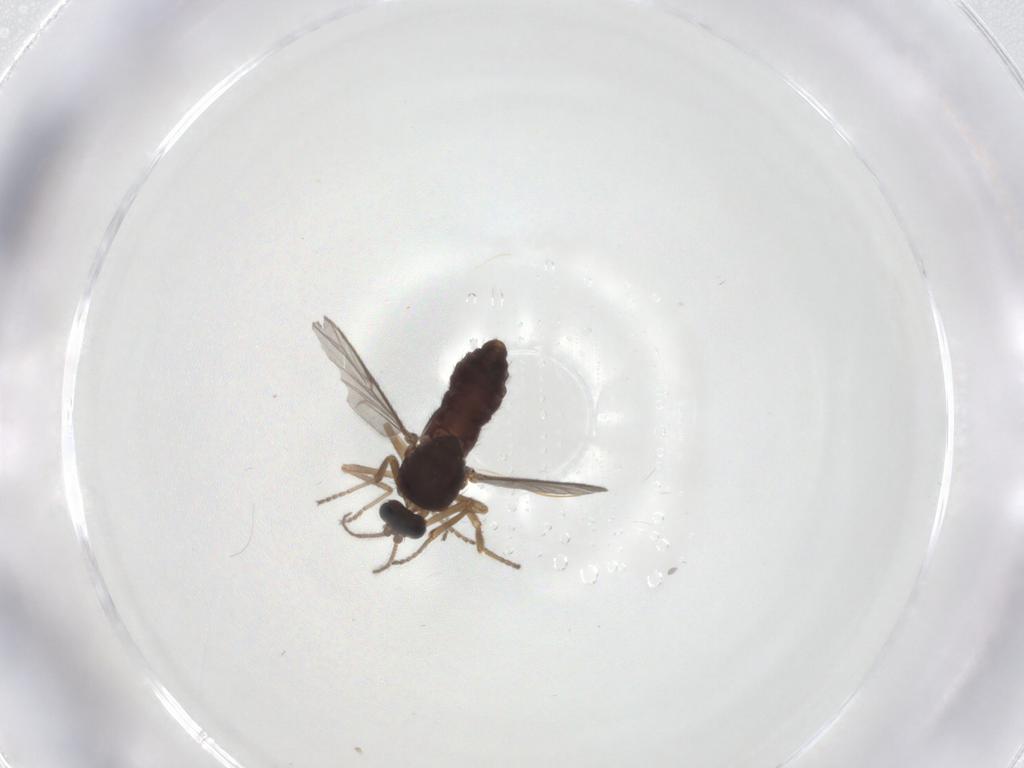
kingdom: Animalia
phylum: Arthropoda
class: Insecta
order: Diptera
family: Ceratopogonidae
